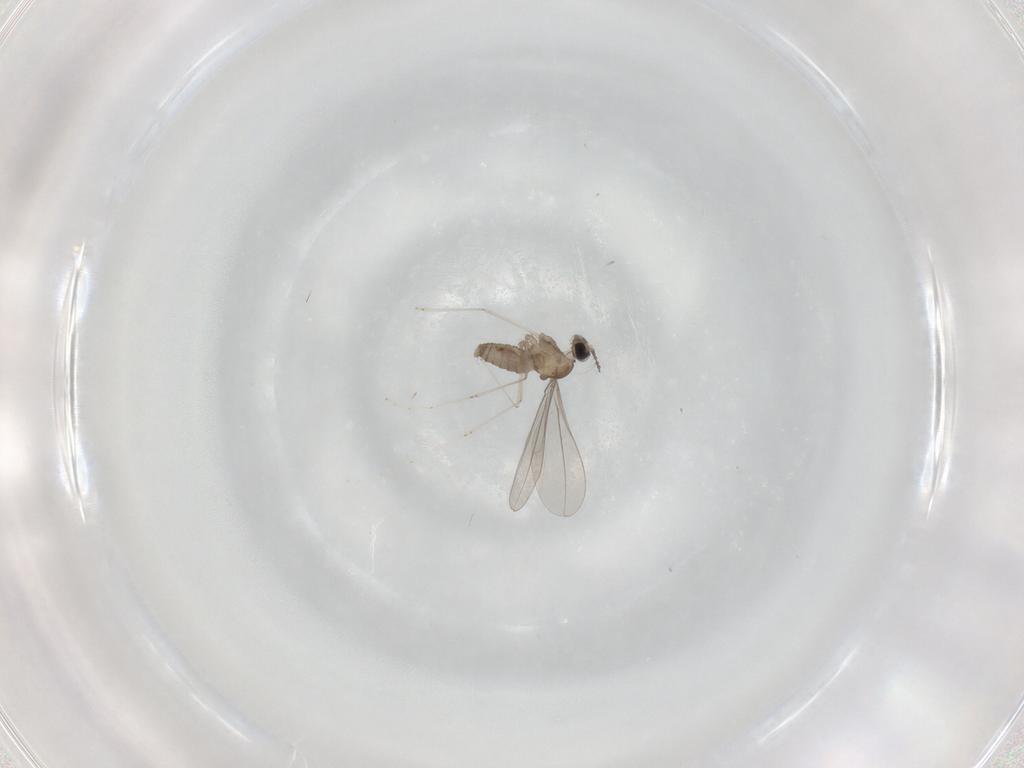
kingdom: Animalia
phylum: Arthropoda
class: Insecta
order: Diptera
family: Cecidomyiidae
